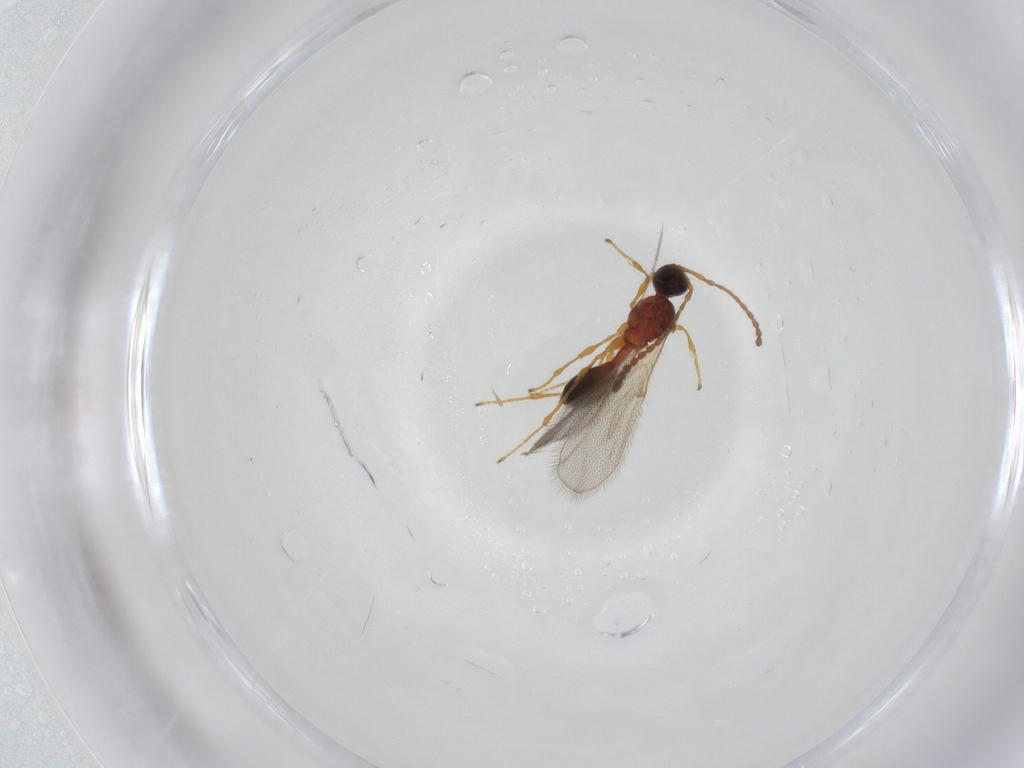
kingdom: Animalia
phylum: Arthropoda
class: Insecta
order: Hymenoptera
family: Diapriidae
